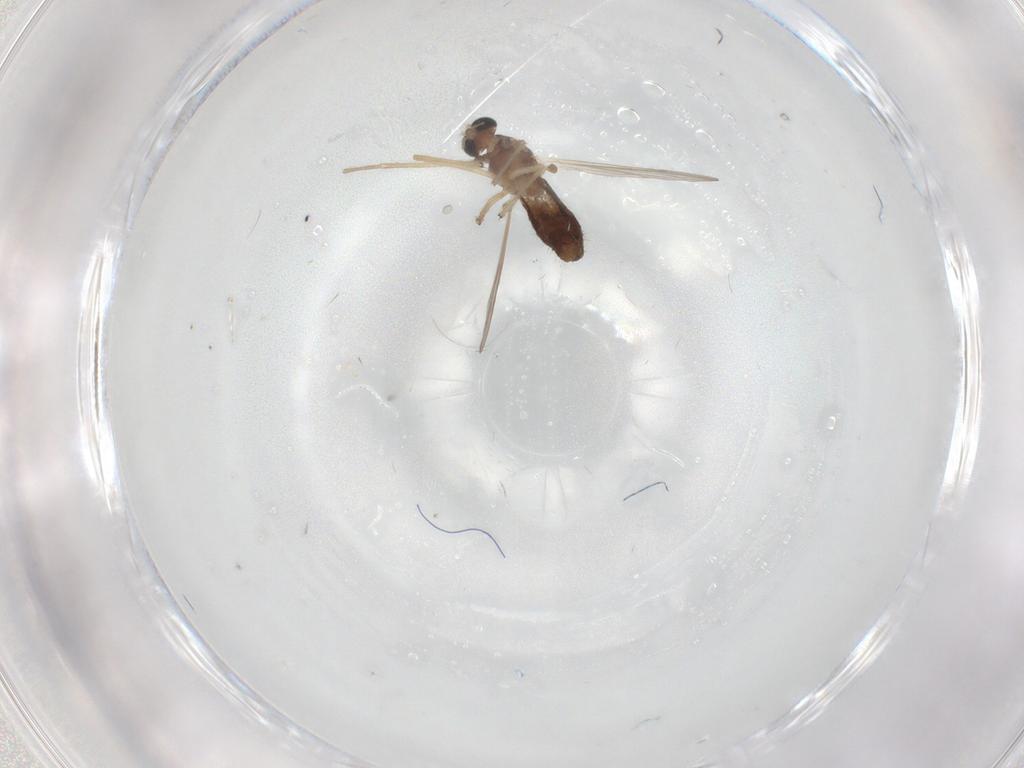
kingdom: Animalia
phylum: Arthropoda
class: Insecta
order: Diptera
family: Chironomidae
